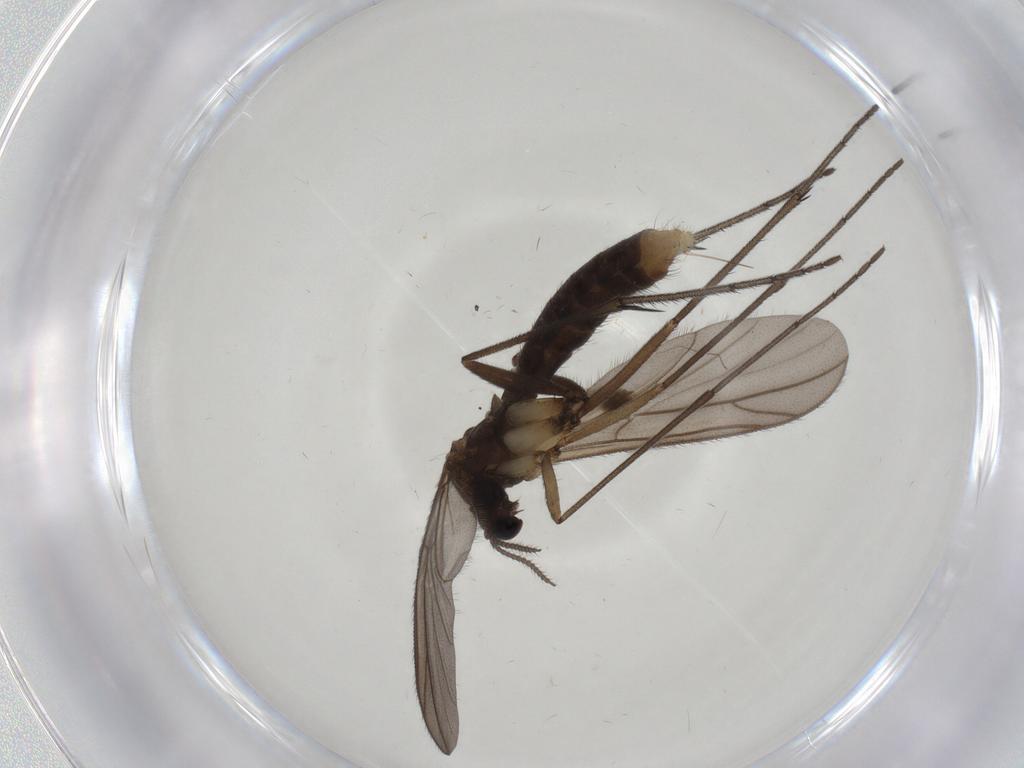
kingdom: Animalia
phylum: Arthropoda
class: Insecta
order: Diptera
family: Ditomyiidae
